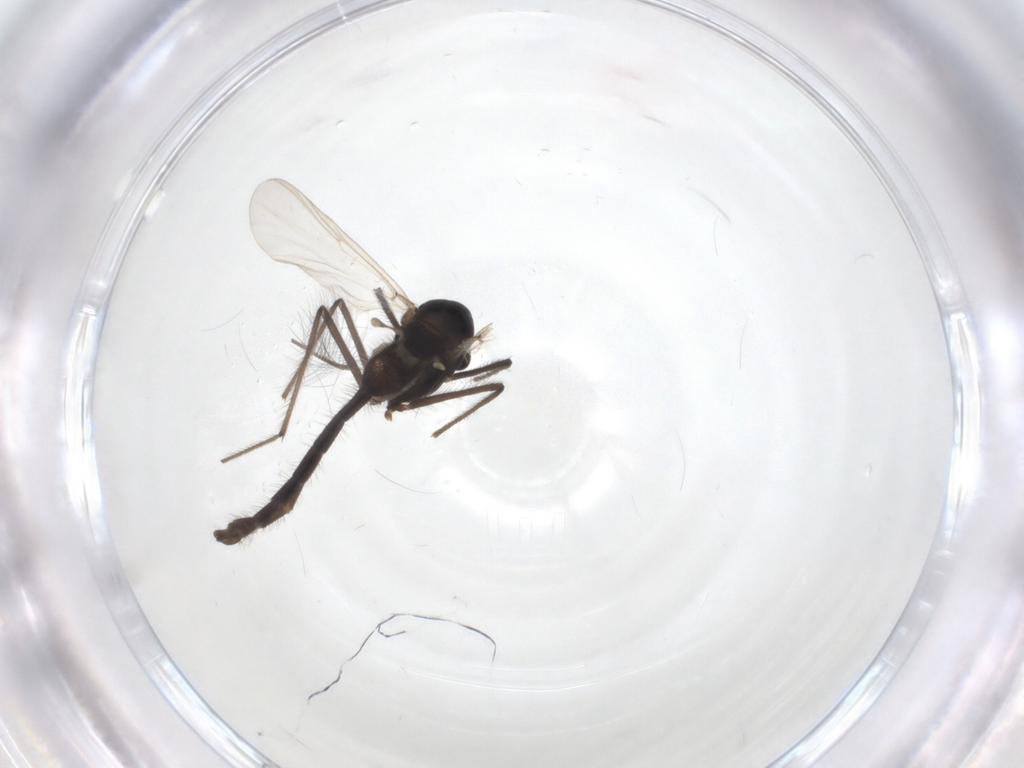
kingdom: Animalia
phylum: Arthropoda
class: Insecta
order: Diptera
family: Chironomidae
